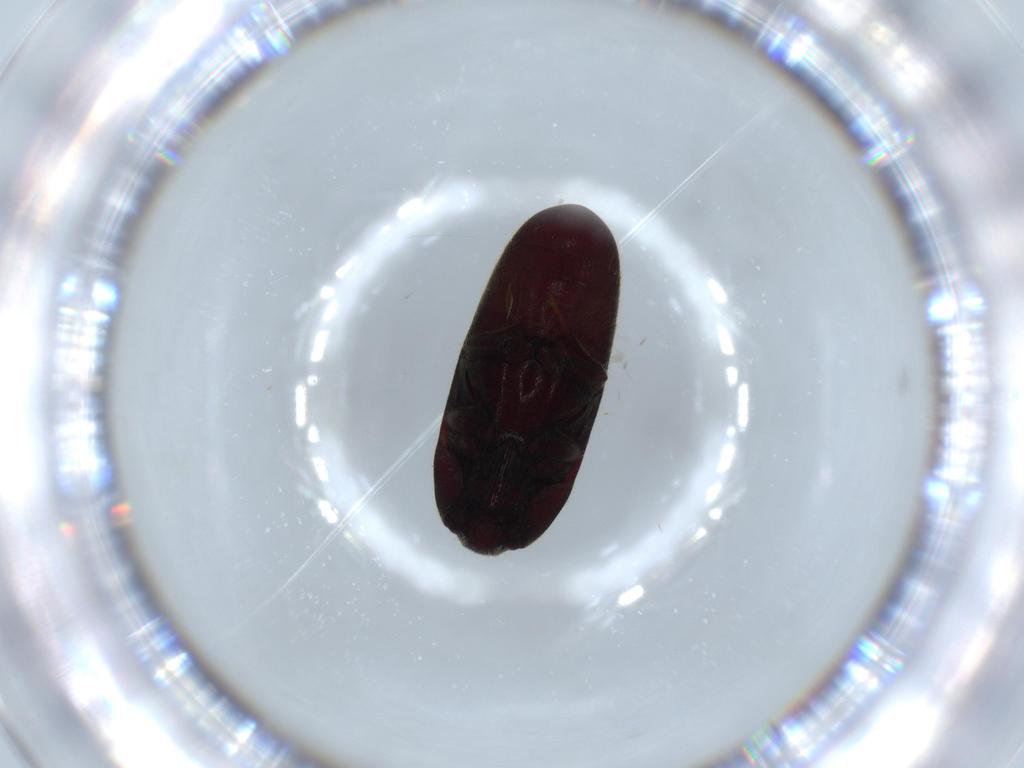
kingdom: Animalia
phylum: Arthropoda
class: Insecta
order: Coleoptera
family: Throscidae
